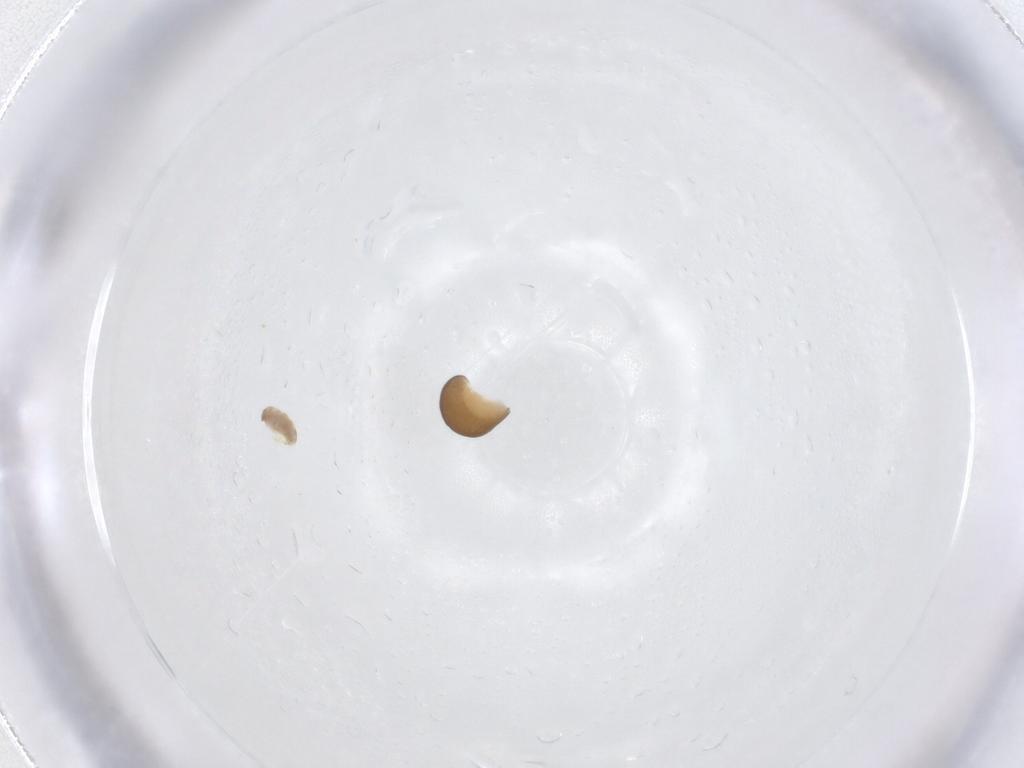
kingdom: Animalia
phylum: Arthropoda
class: Insecta
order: Hymenoptera
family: Dryinidae
